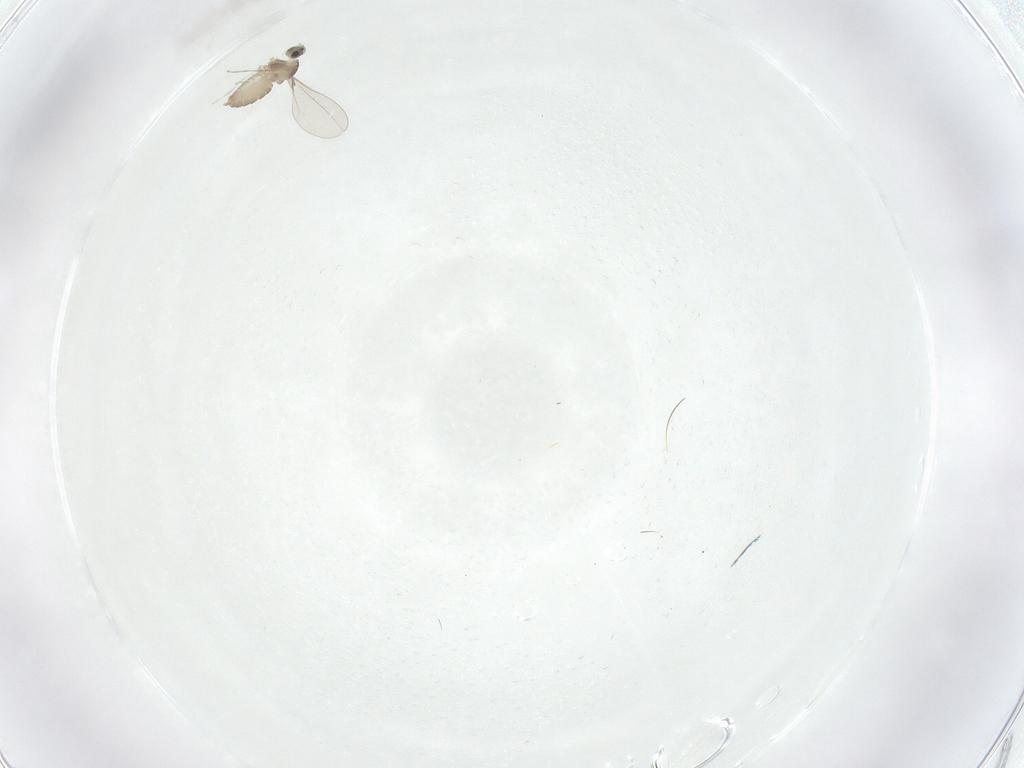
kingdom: Animalia
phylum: Arthropoda
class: Insecta
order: Diptera
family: Cecidomyiidae
